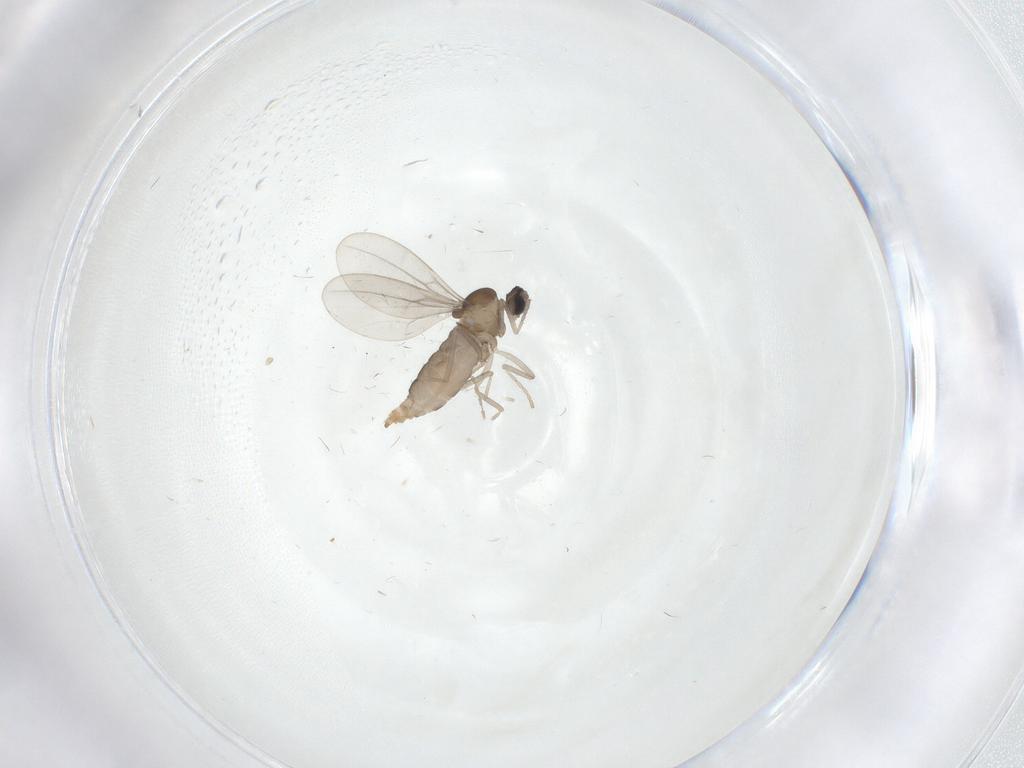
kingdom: Animalia
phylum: Arthropoda
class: Insecta
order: Diptera
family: Cecidomyiidae
